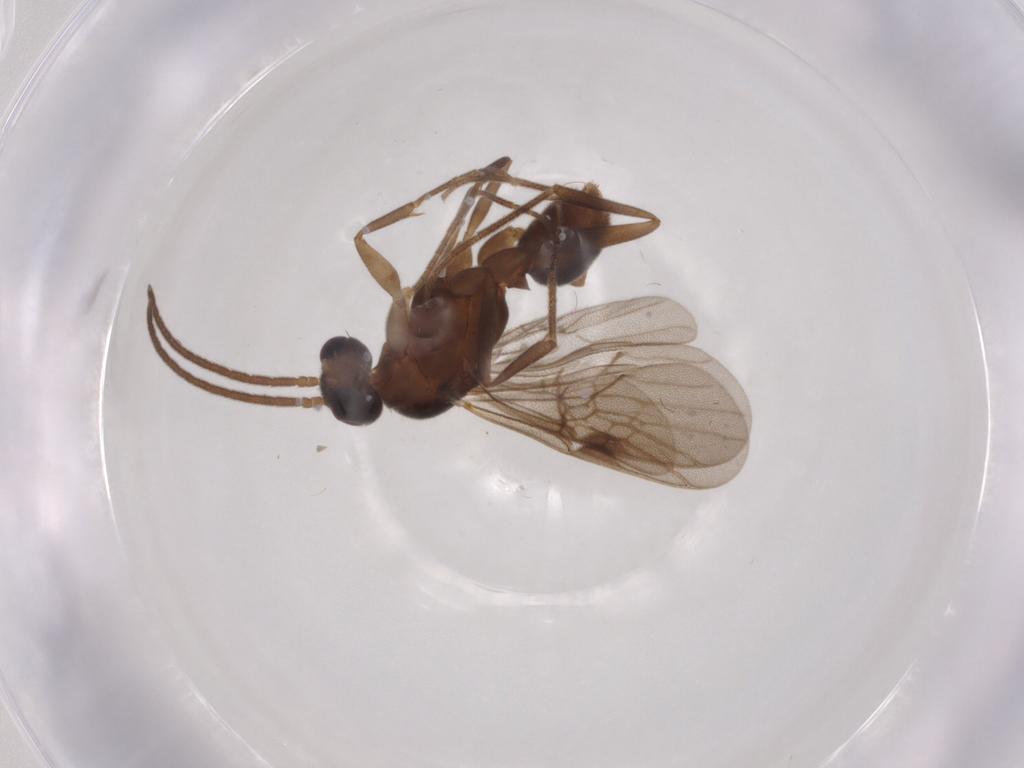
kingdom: Animalia
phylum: Arthropoda
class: Insecta
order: Hymenoptera
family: Formicidae
